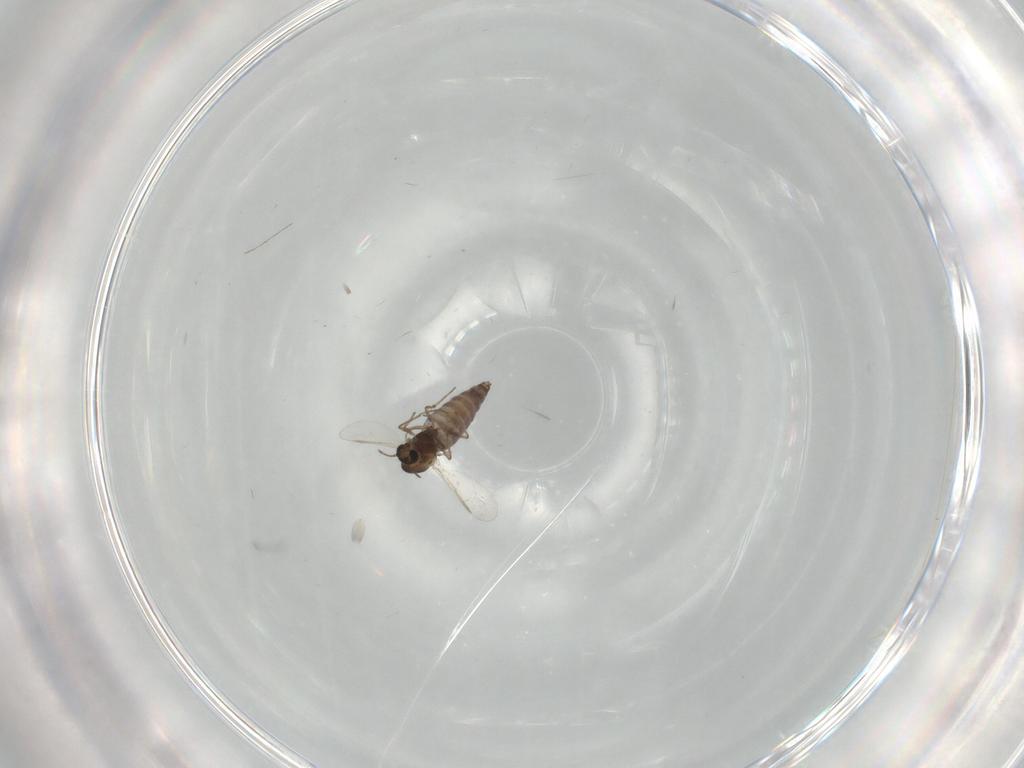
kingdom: Animalia
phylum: Arthropoda
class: Insecta
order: Diptera
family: Chironomidae
